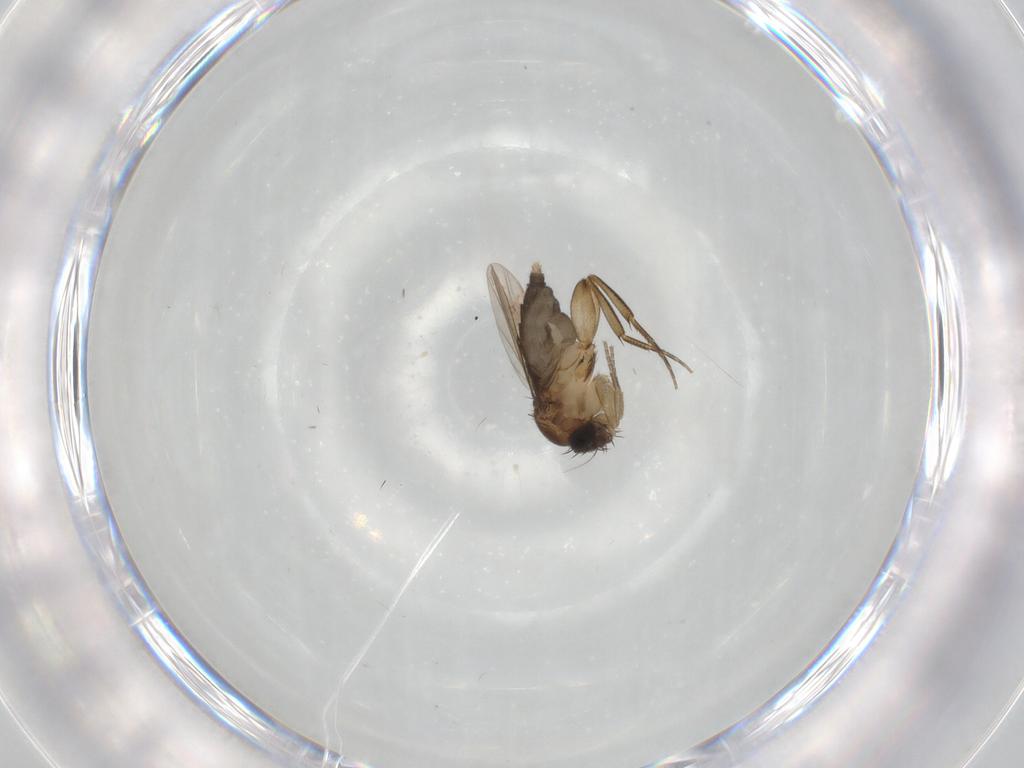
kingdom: Animalia
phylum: Arthropoda
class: Insecta
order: Diptera
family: Phoridae
